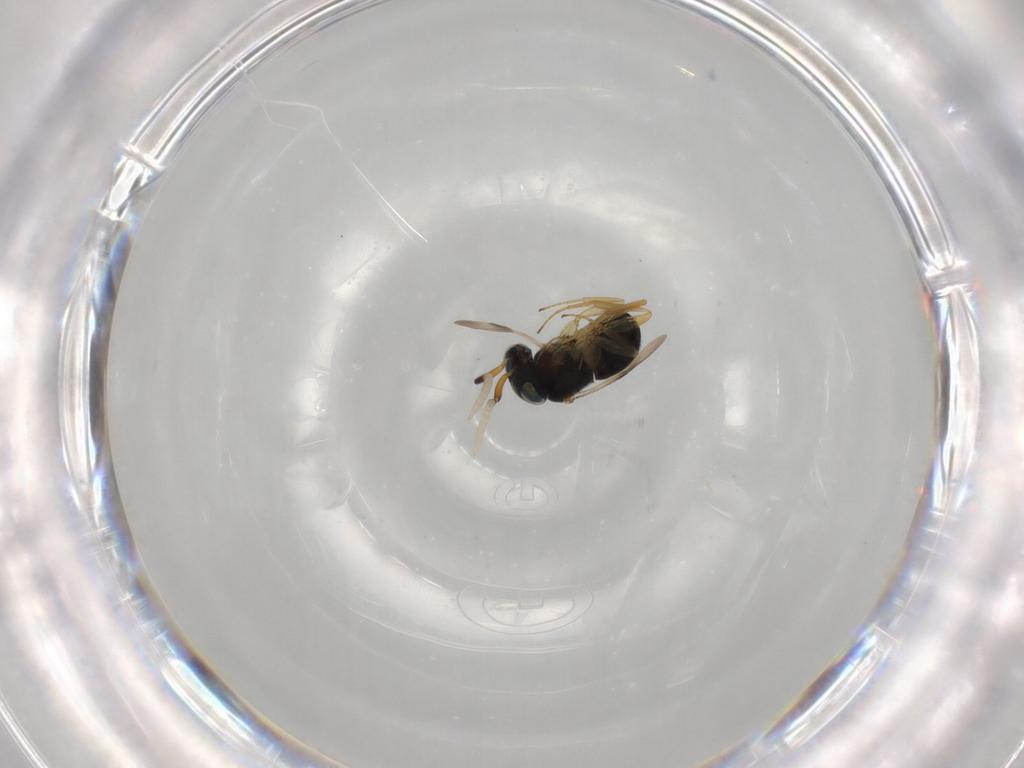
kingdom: Animalia
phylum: Arthropoda
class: Insecta
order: Hymenoptera
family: Scelionidae
